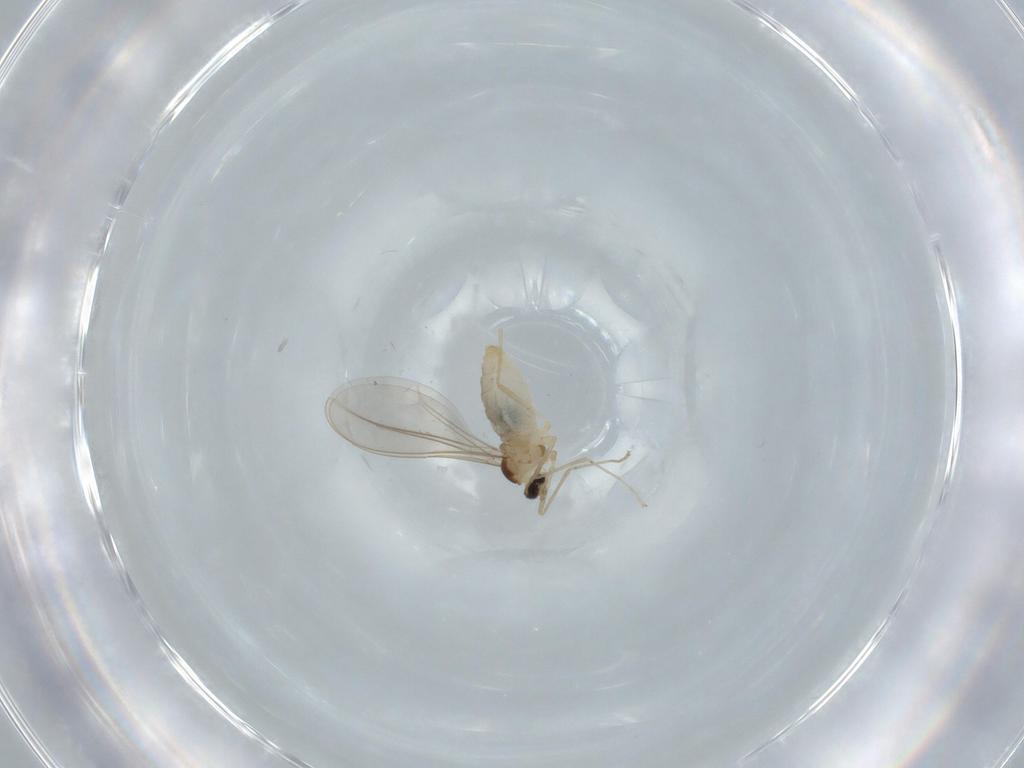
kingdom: Animalia
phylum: Arthropoda
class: Insecta
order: Diptera
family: Cecidomyiidae
